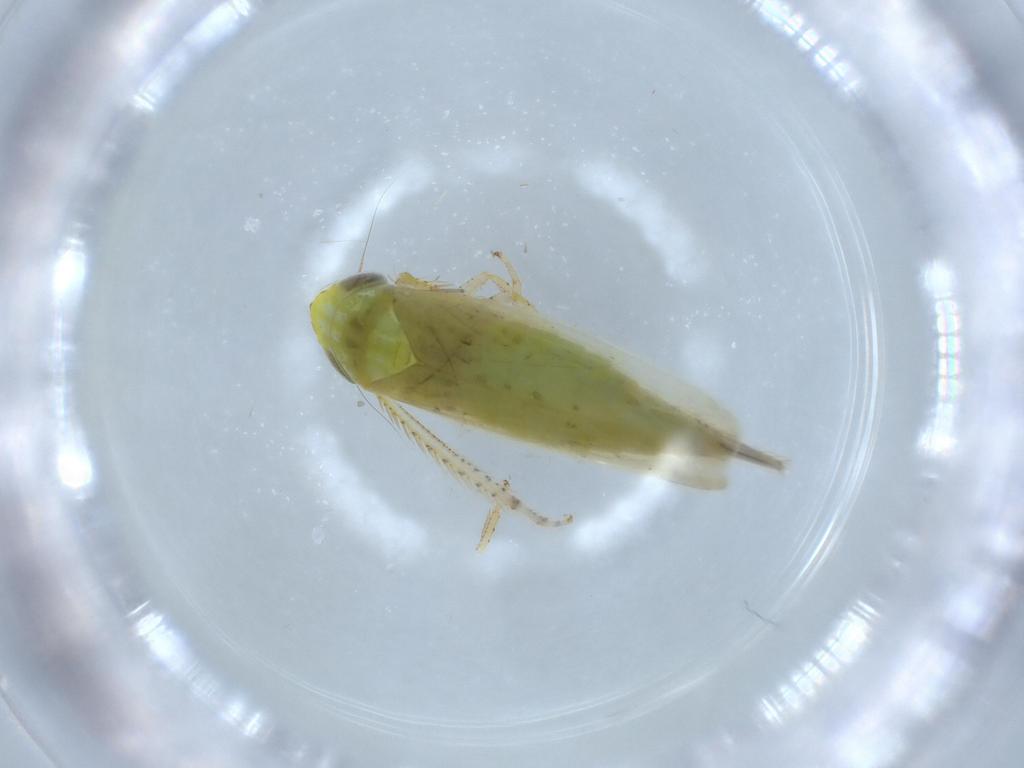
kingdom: Animalia
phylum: Arthropoda
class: Insecta
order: Hemiptera
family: Cicadellidae
